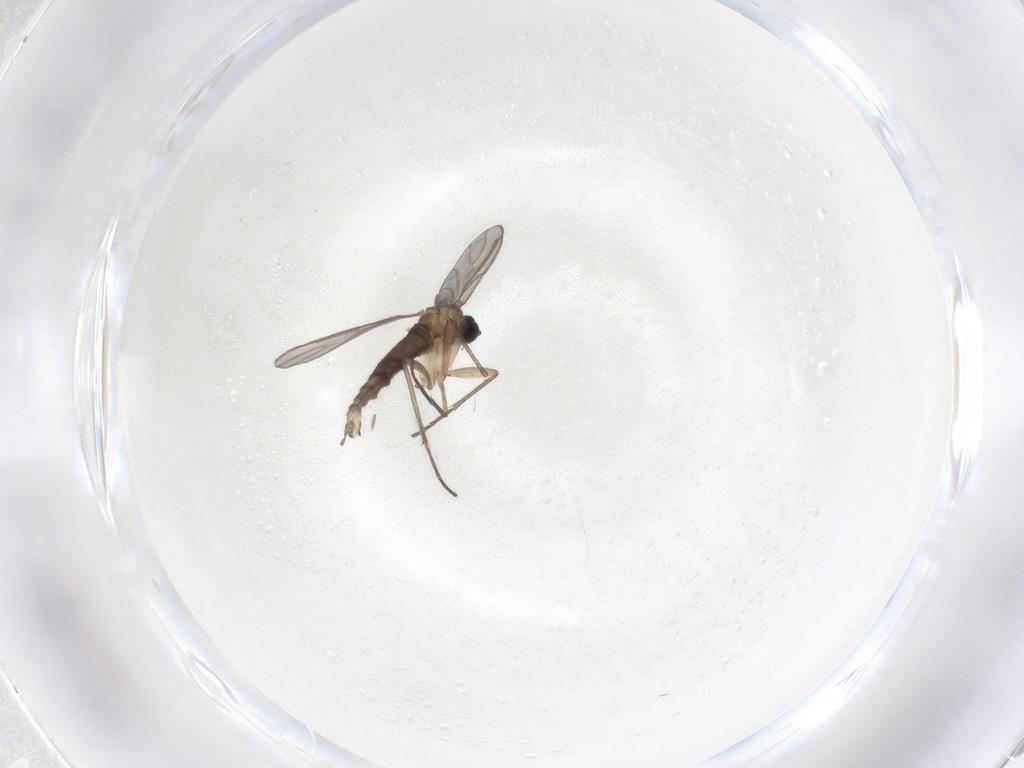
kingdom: Animalia
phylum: Arthropoda
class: Insecta
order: Diptera
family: Sciaridae
